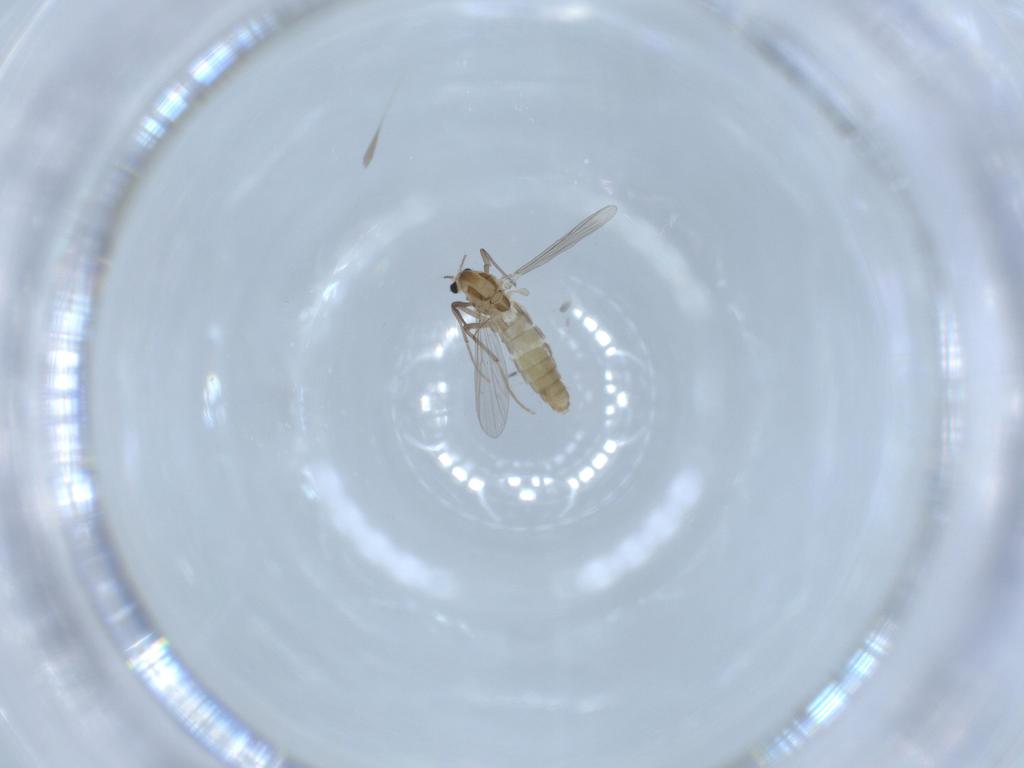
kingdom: Animalia
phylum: Arthropoda
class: Insecta
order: Diptera
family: Chironomidae
